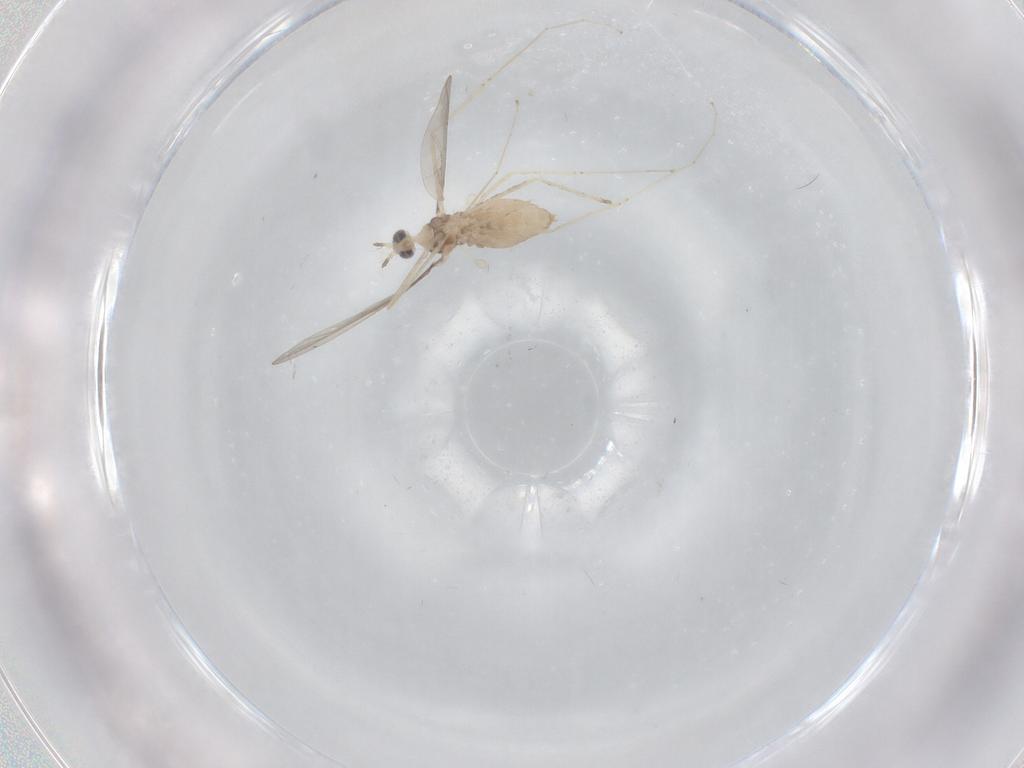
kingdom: Animalia
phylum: Arthropoda
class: Insecta
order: Diptera
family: Cecidomyiidae
